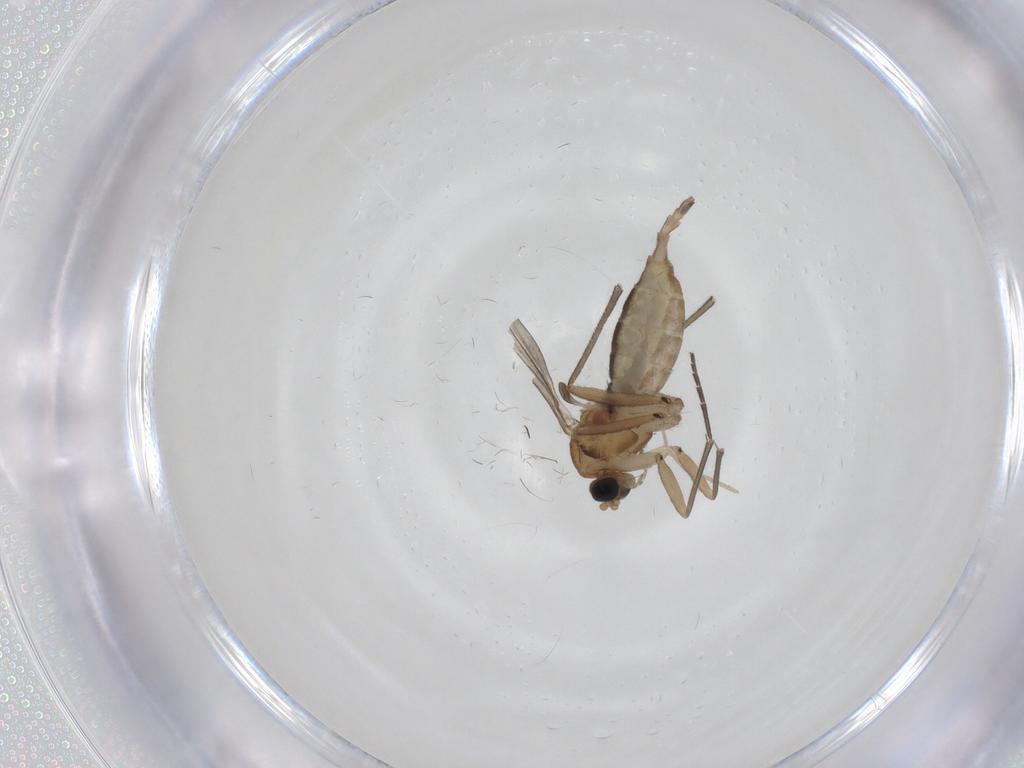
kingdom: Animalia
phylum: Arthropoda
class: Insecta
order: Diptera
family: Sciaridae
